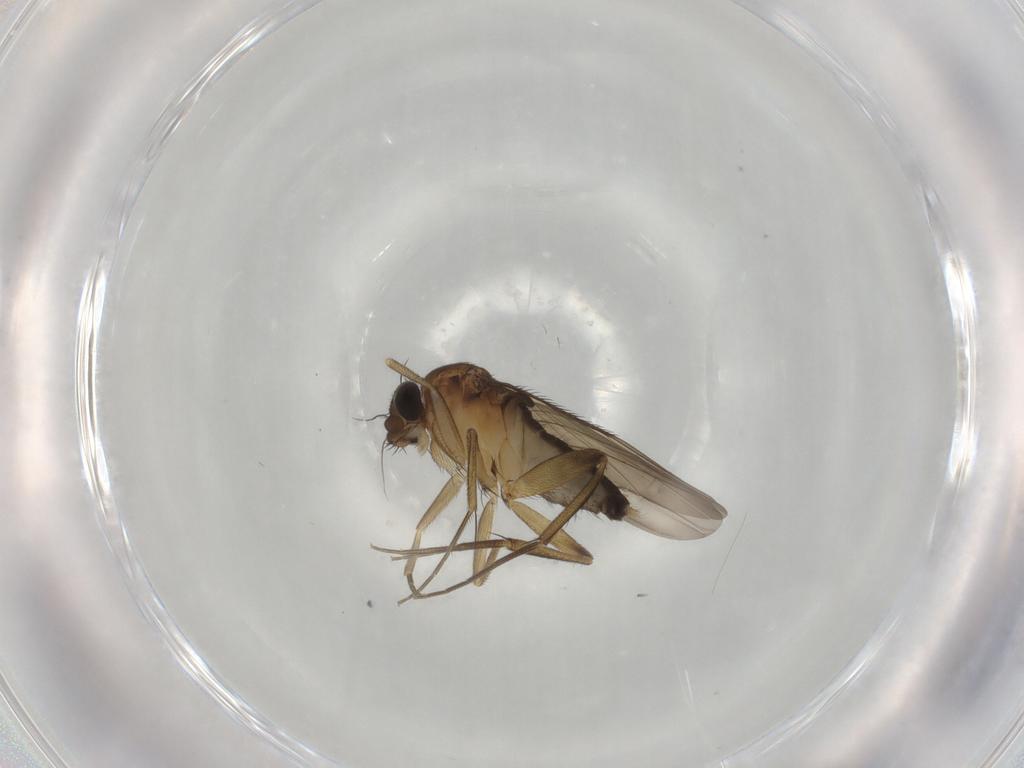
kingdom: Animalia
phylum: Arthropoda
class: Insecta
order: Diptera
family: Phoridae
